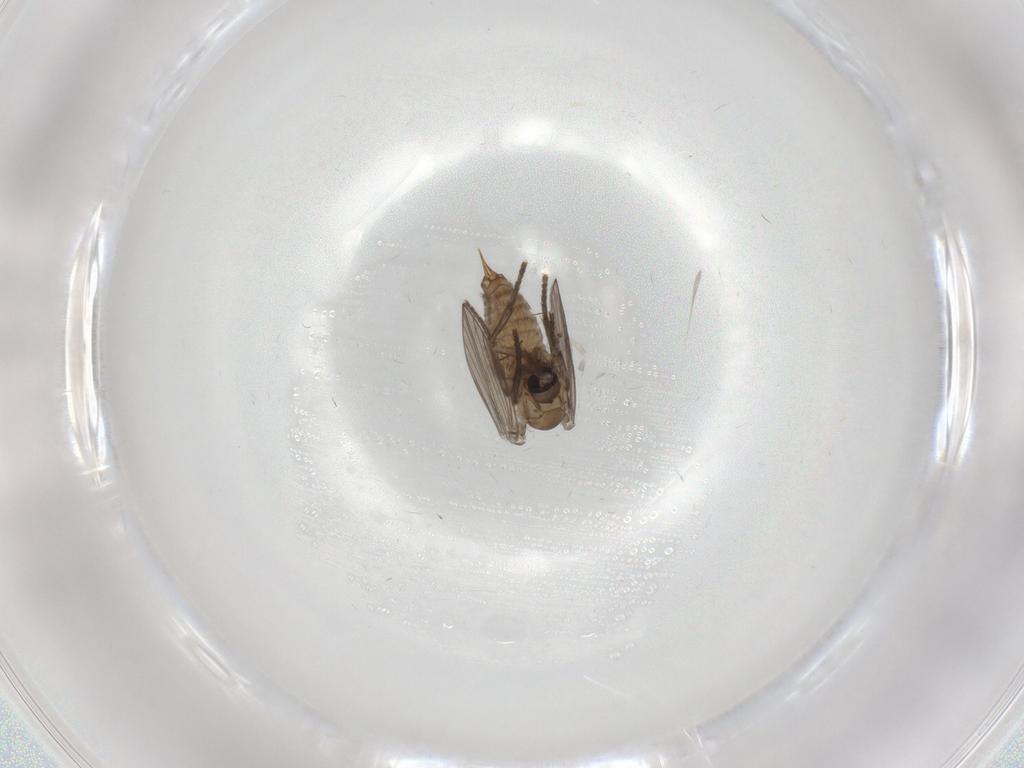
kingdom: Animalia
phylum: Arthropoda
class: Insecta
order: Diptera
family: Psychodidae
